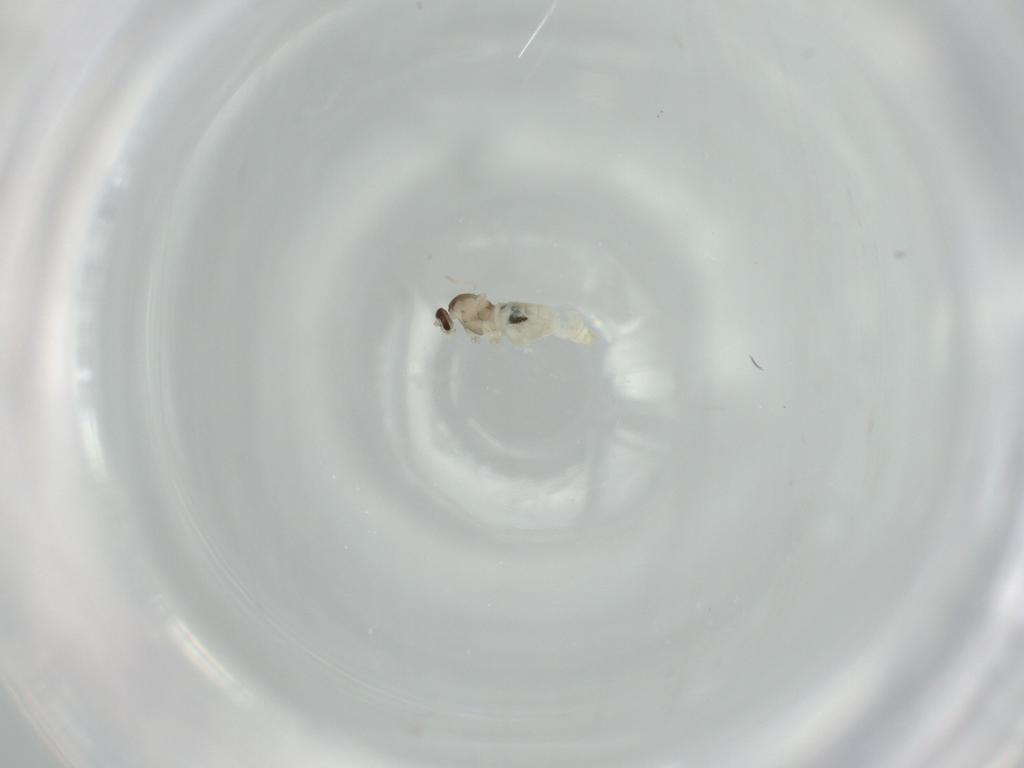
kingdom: Animalia
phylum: Arthropoda
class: Insecta
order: Diptera
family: Cecidomyiidae
